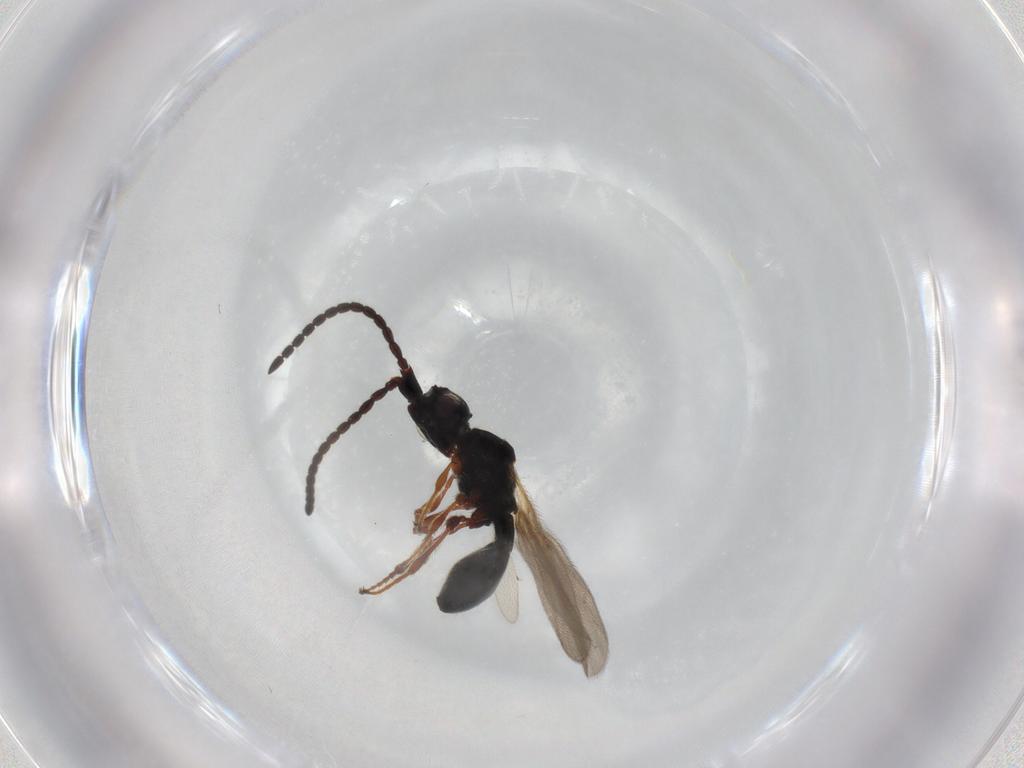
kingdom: Animalia
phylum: Arthropoda
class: Insecta
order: Hymenoptera
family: Diapriidae
